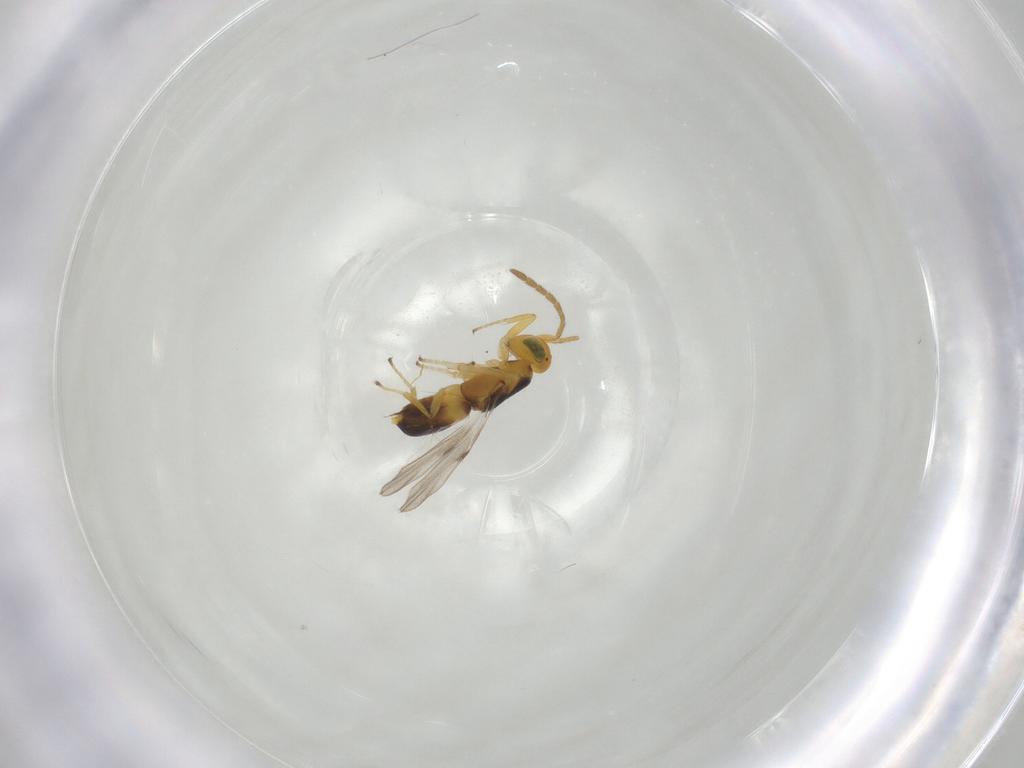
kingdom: Animalia
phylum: Arthropoda
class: Insecta
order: Hymenoptera
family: Encyrtidae
